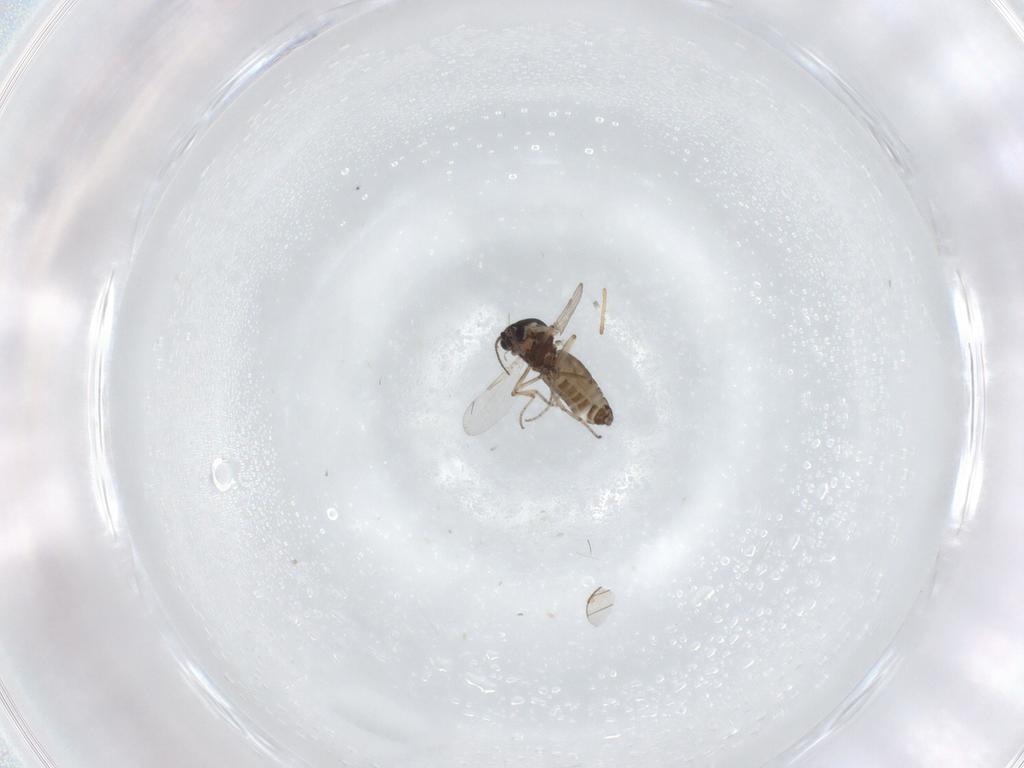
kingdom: Animalia
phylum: Arthropoda
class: Insecta
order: Diptera
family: Ceratopogonidae
